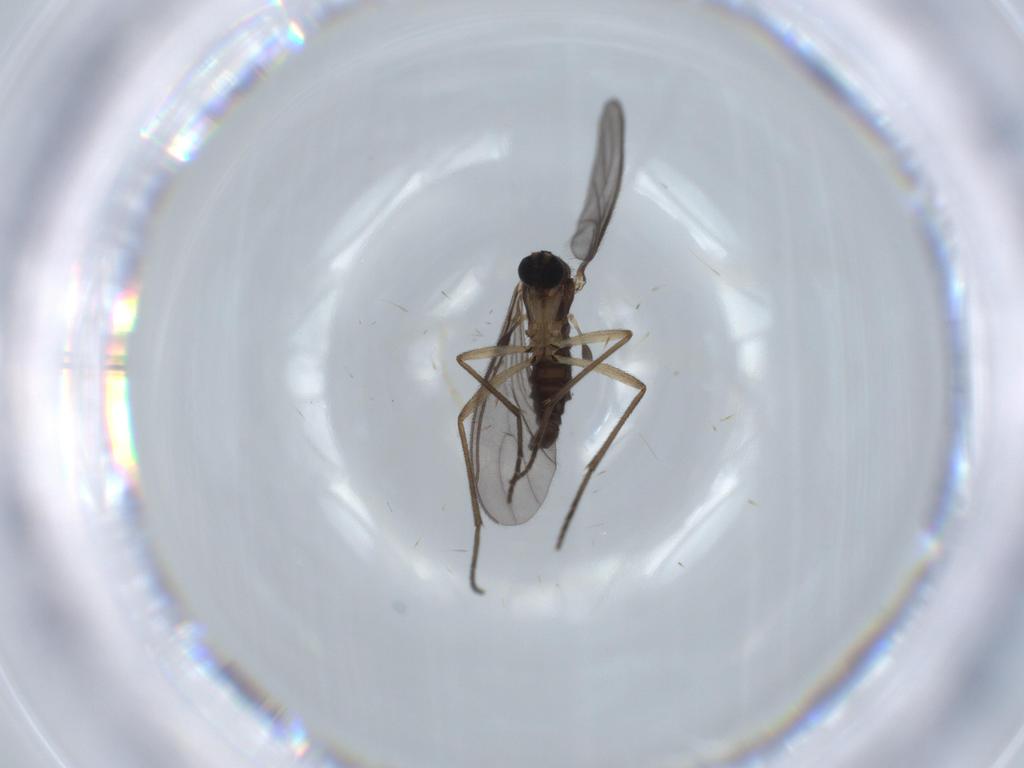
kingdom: Animalia
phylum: Arthropoda
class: Insecta
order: Diptera
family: Sciaridae
